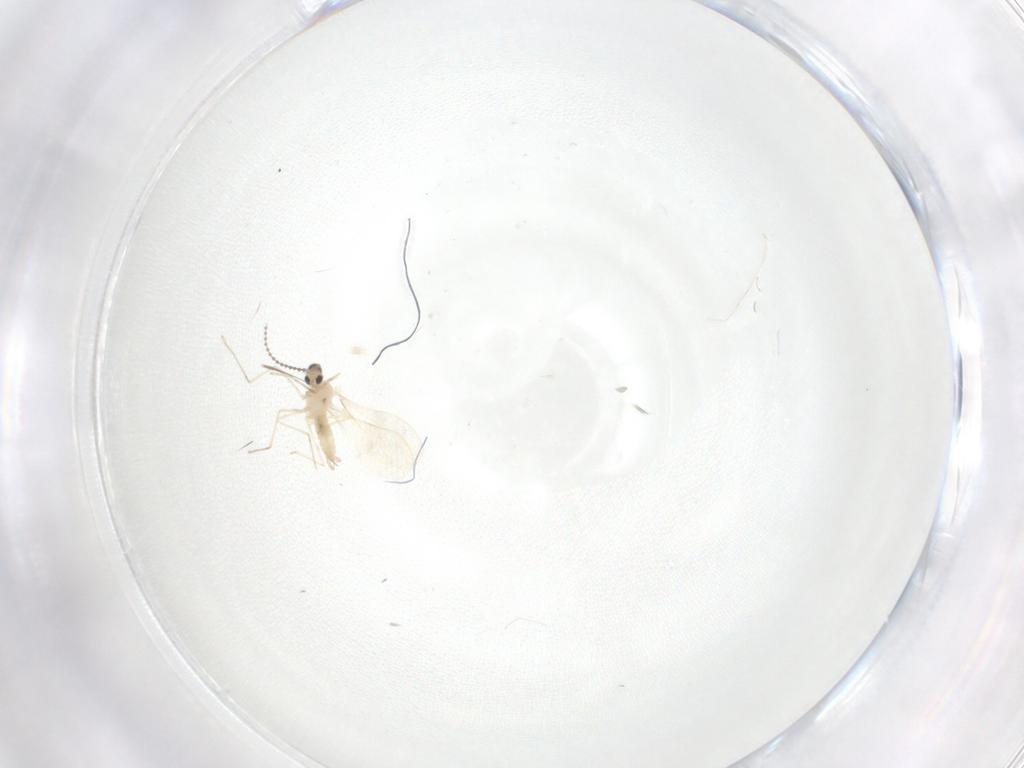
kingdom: Animalia
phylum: Arthropoda
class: Insecta
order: Diptera
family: Cecidomyiidae
